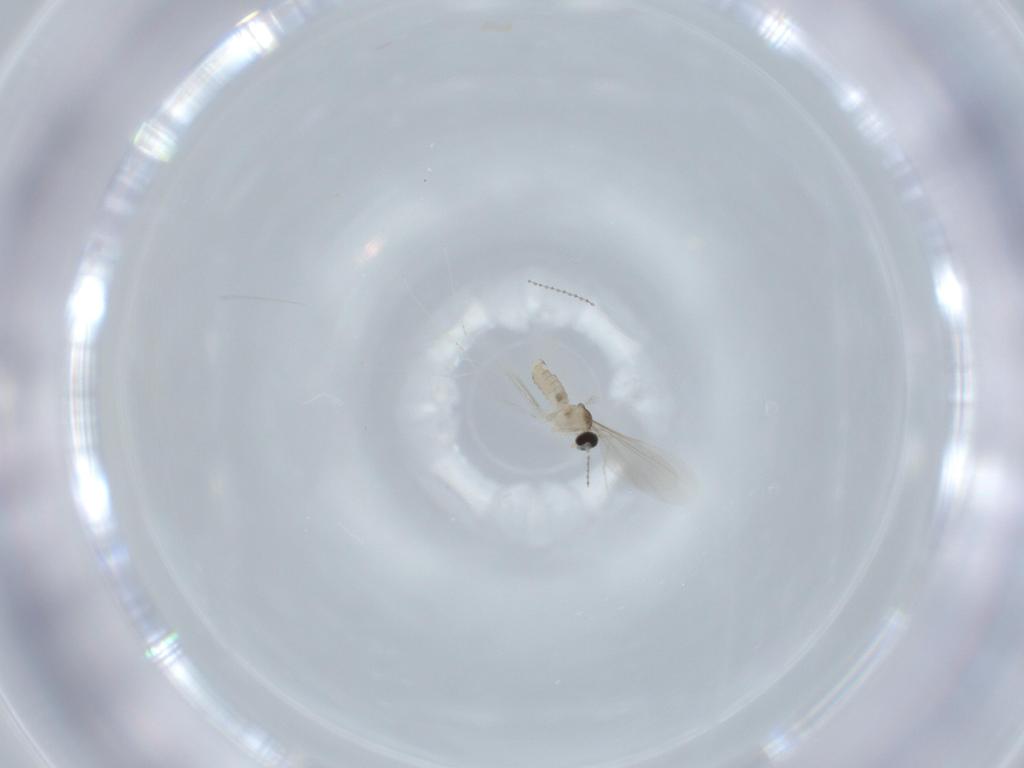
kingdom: Animalia
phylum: Arthropoda
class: Insecta
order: Diptera
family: Cecidomyiidae
